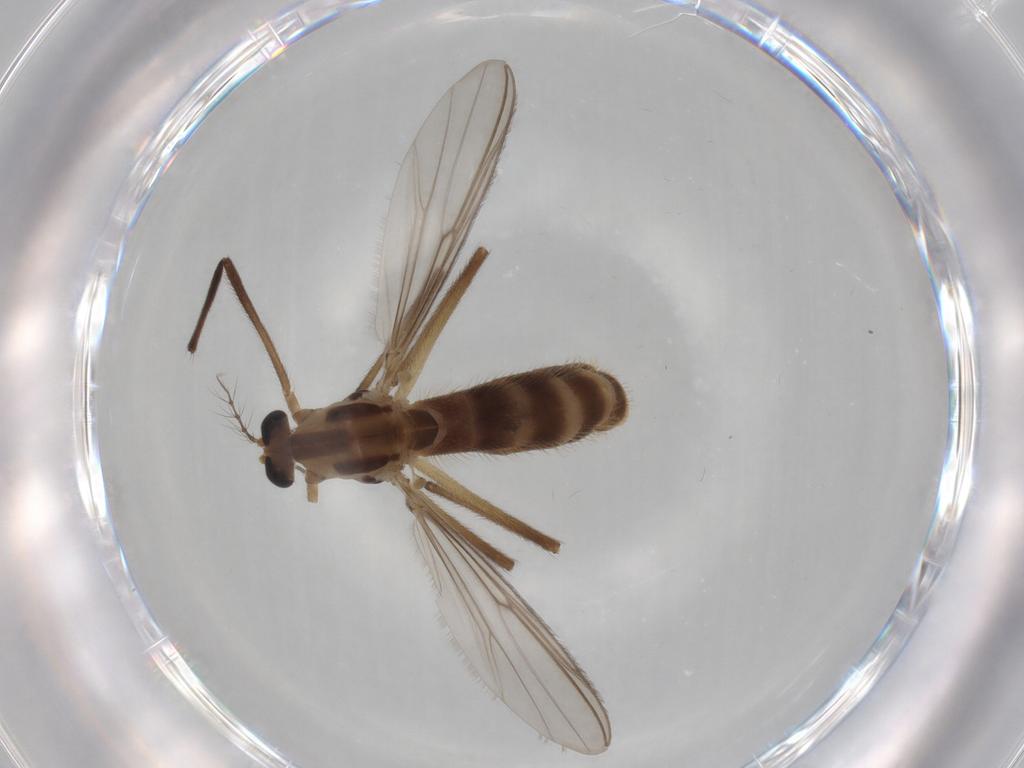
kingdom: Animalia
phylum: Arthropoda
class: Insecta
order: Diptera
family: Chironomidae
